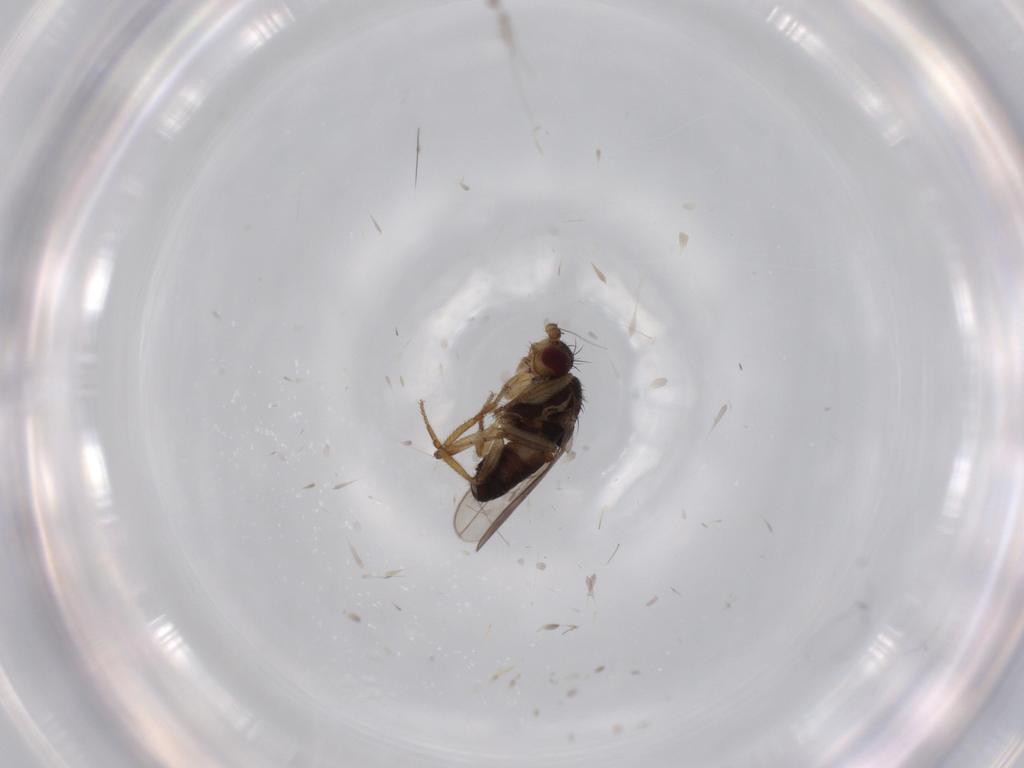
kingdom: Animalia
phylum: Arthropoda
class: Insecta
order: Diptera
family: Sphaeroceridae
